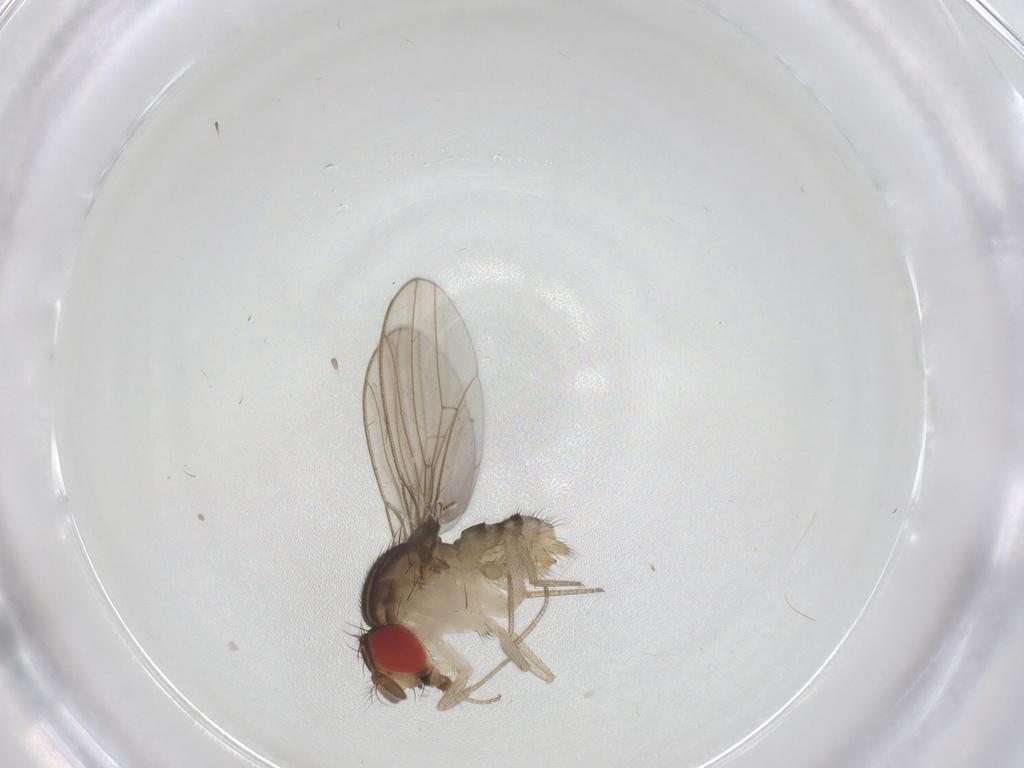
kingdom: Animalia
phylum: Arthropoda
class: Insecta
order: Diptera
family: Drosophilidae
